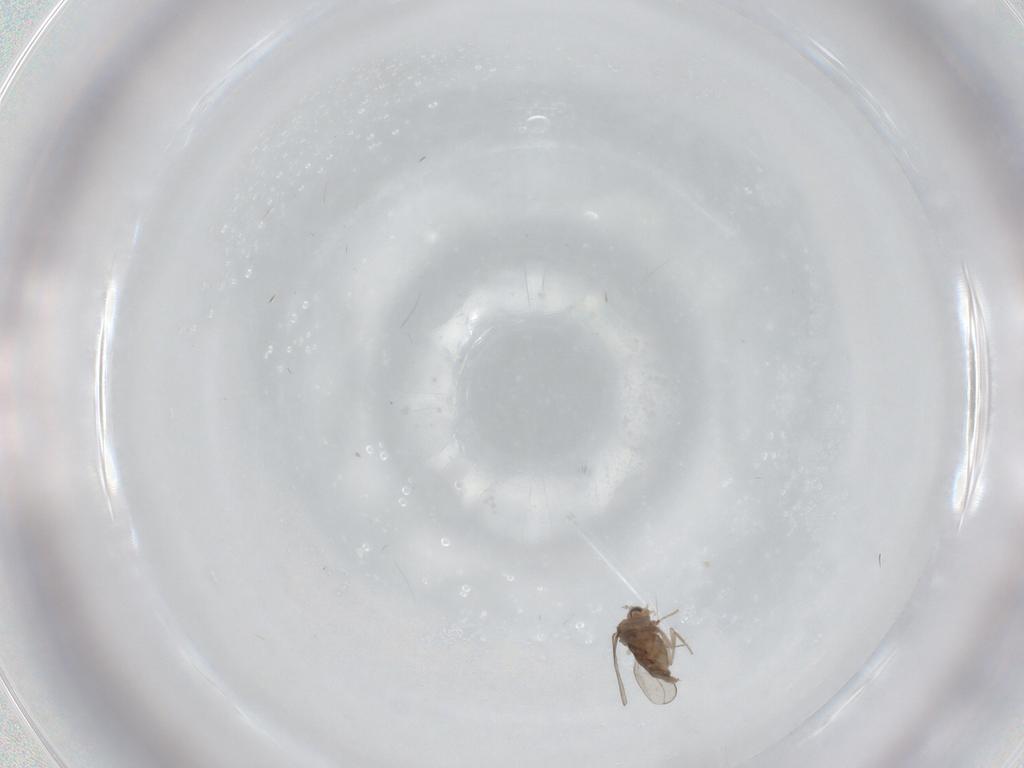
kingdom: Animalia
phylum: Arthropoda
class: Insecta
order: Diptera
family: Cecidomyiidae
